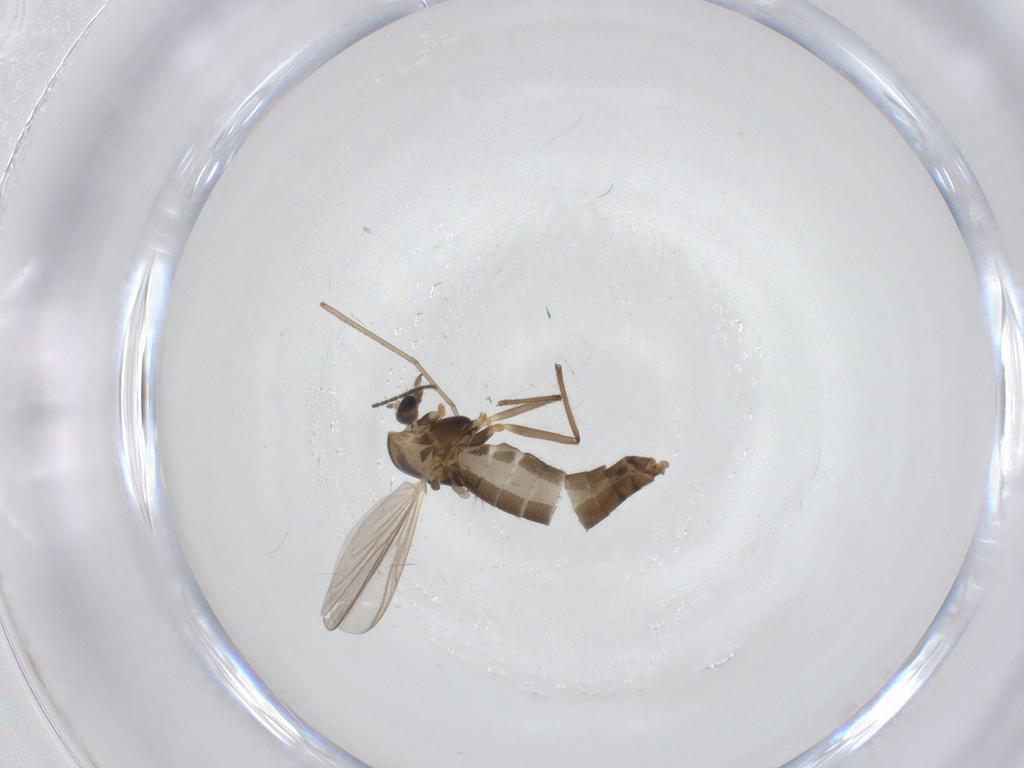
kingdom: Animalia
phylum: Arthropoda
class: Insecta
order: Diptera
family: Chironomidae
